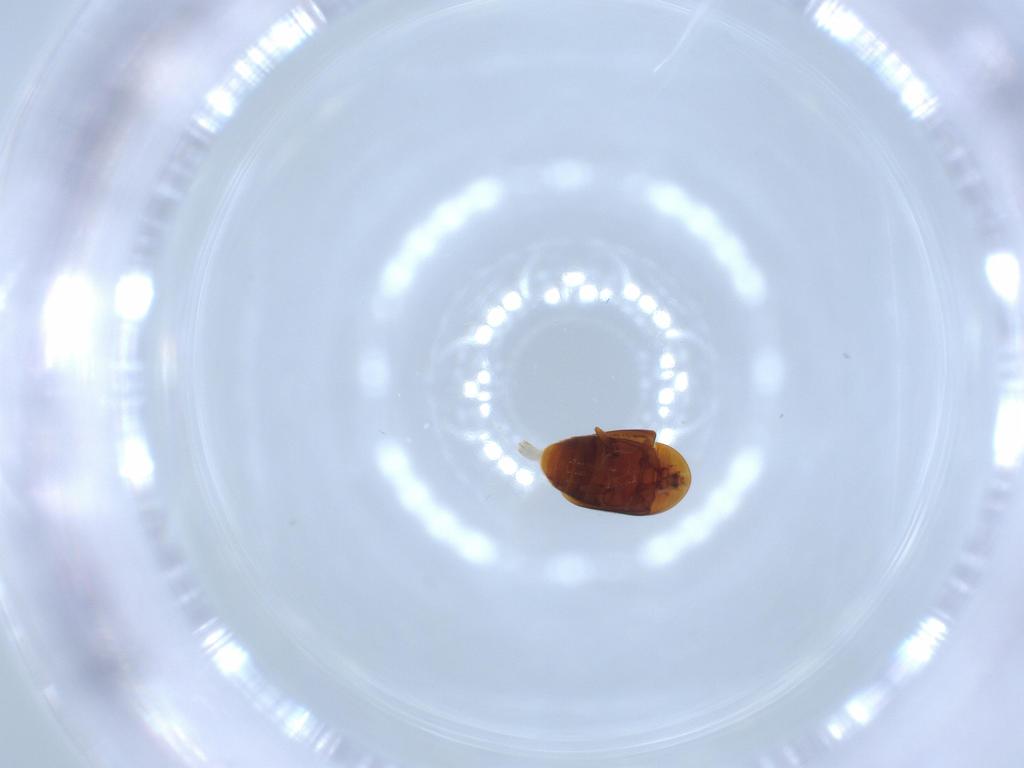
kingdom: Animalia
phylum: Arthropoda
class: Insecta
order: Coleoptera
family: Corylophidae
